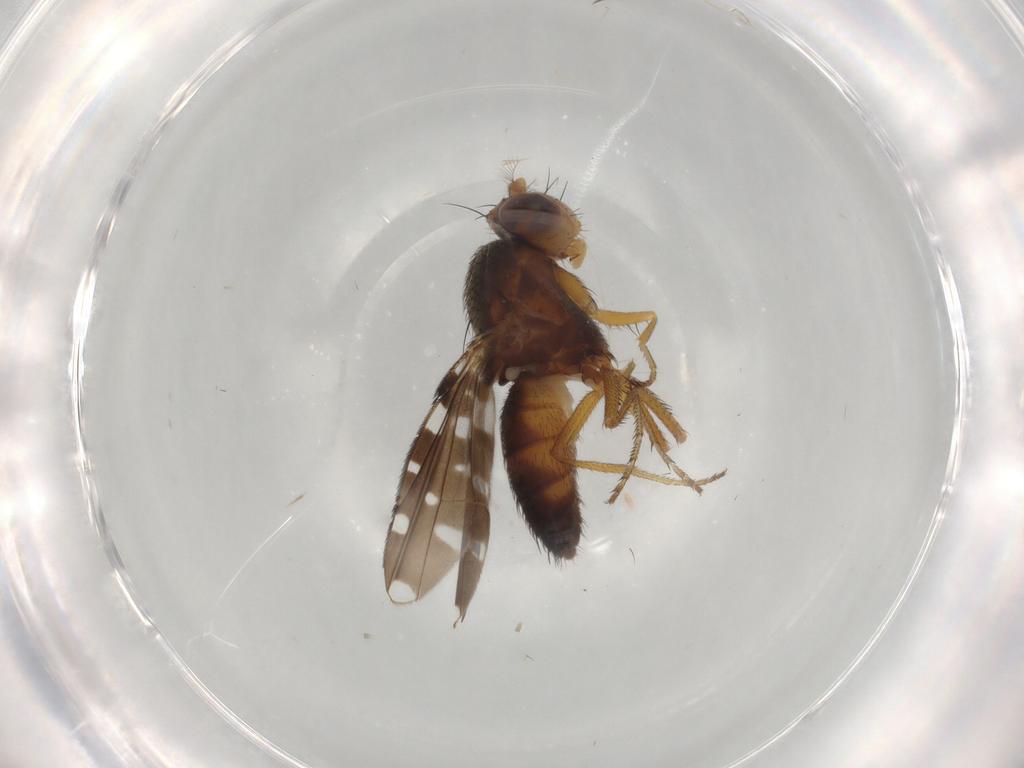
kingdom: Animalia
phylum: Arthropoda
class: Insecta
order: Diptera
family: Ephydridae
